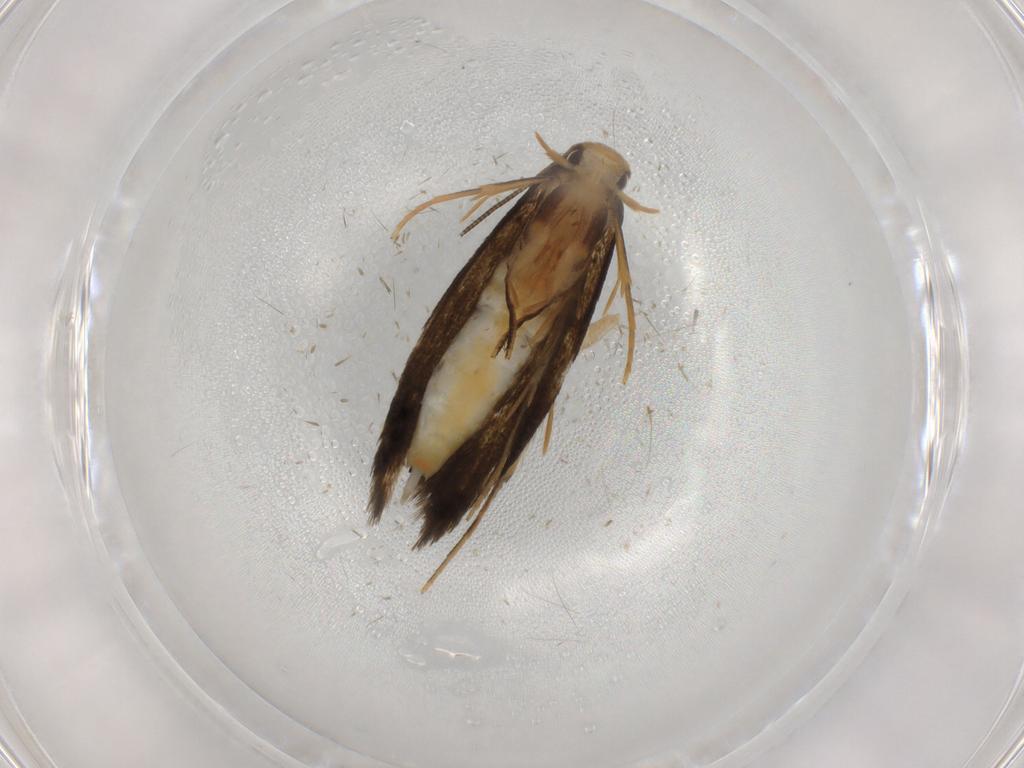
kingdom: Animalia
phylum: Arthropoda
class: Insecta
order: Lepidoptera
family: Tineidae
